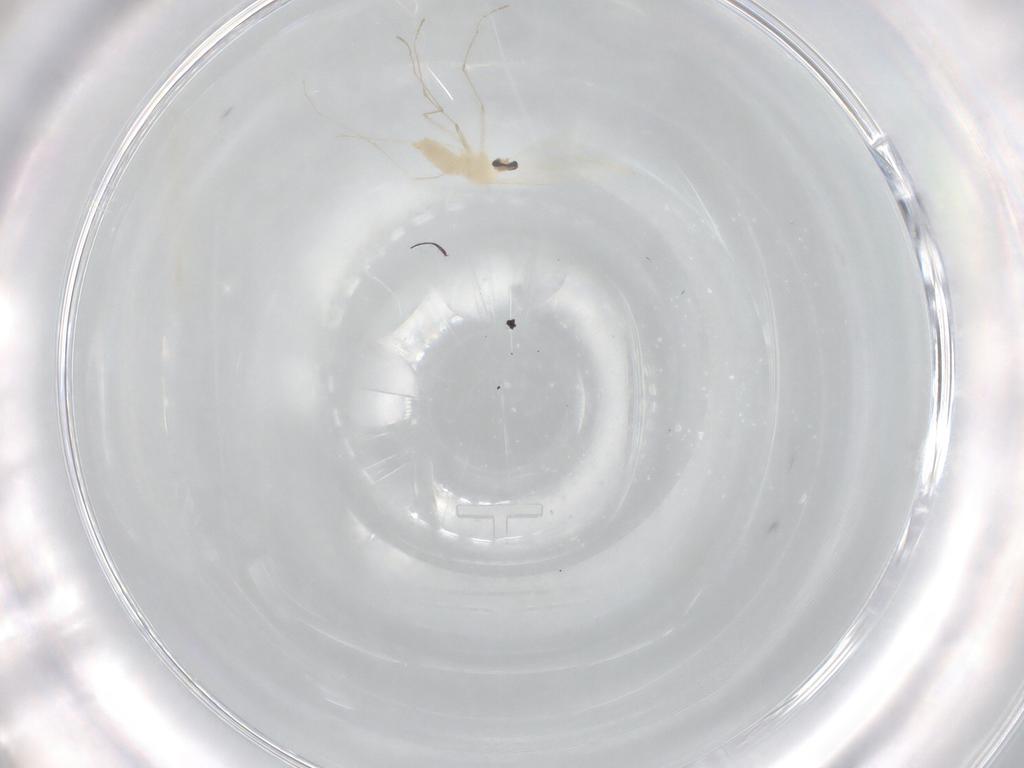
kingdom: Animalia
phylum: Arthropoda
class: Insecta
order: Diptera
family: Cecidomyiidae
